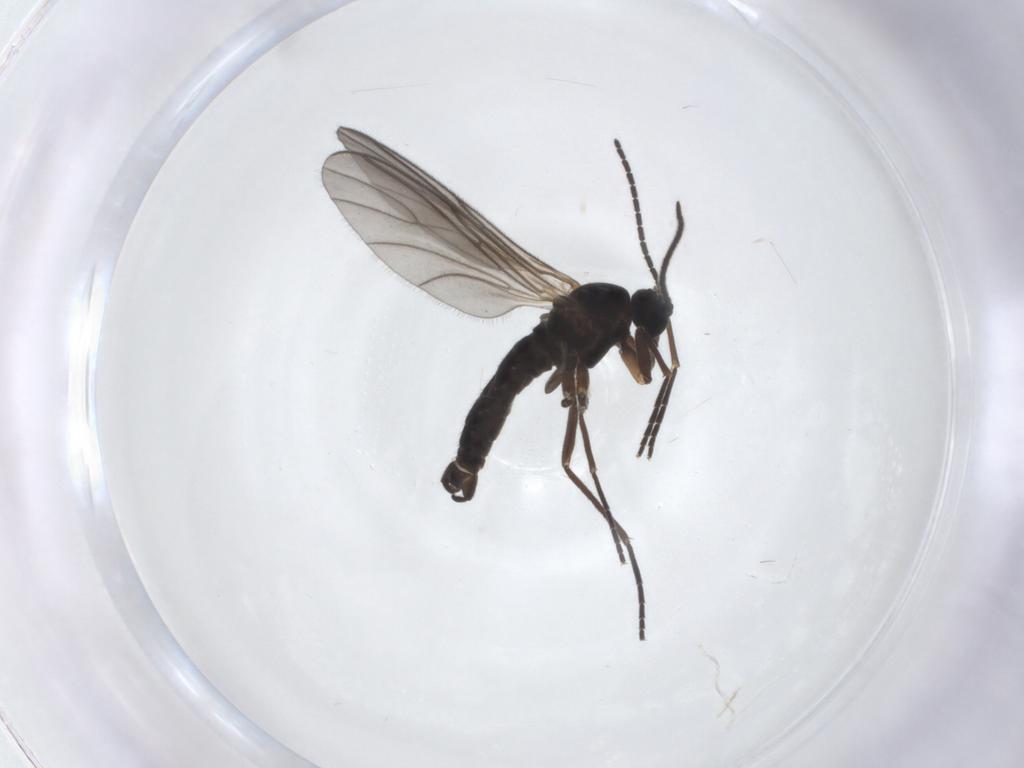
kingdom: Animalia
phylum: Arthropoda
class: Insecta
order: Diptera
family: Sciaridae
